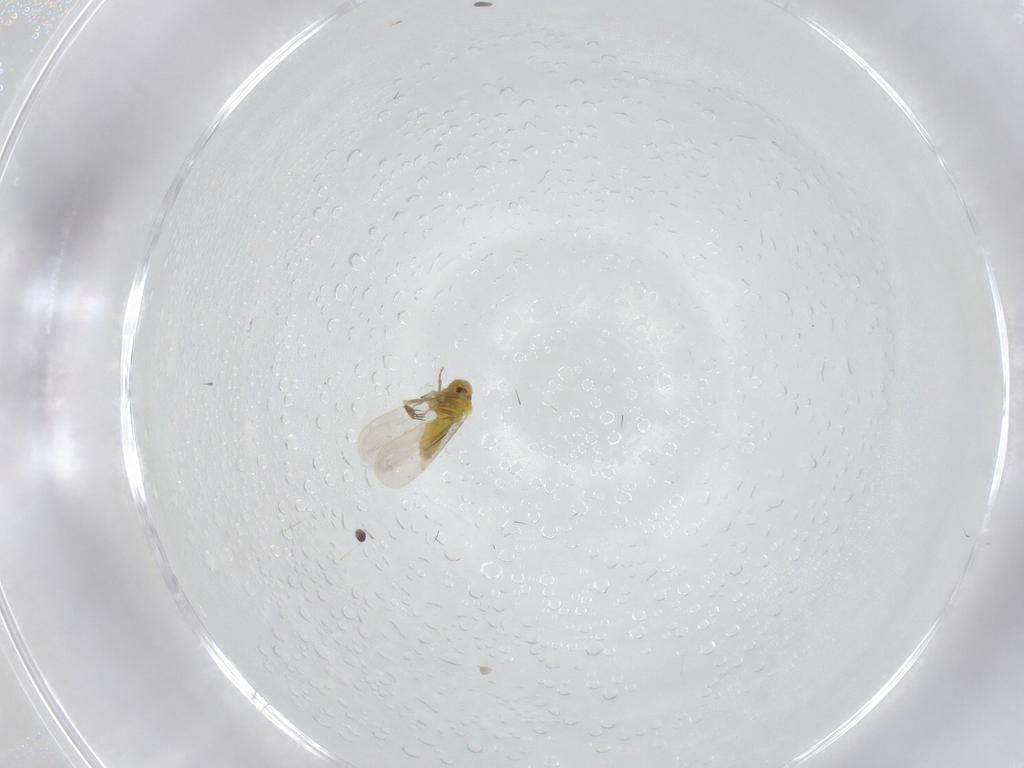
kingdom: Animalia
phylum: Arthropoda
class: Insecta
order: Hemiptera
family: Aleyrodidae
